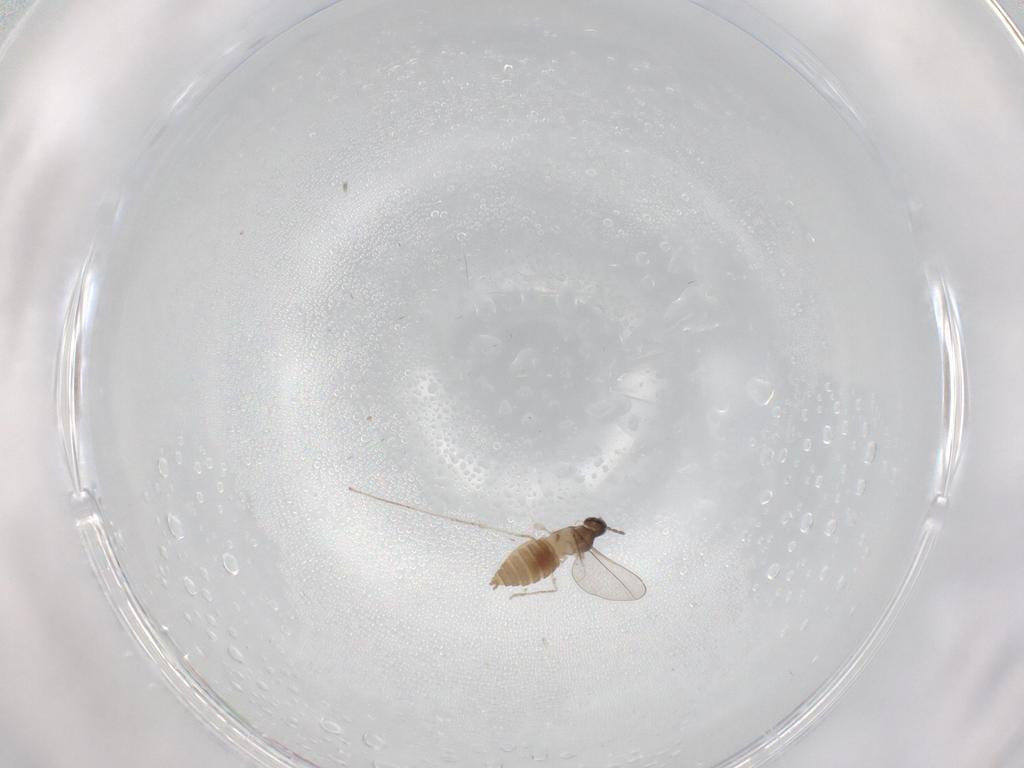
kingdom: Animalia
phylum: Arthropoda
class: Insecta
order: Diptera
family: Cecidomyiidae
